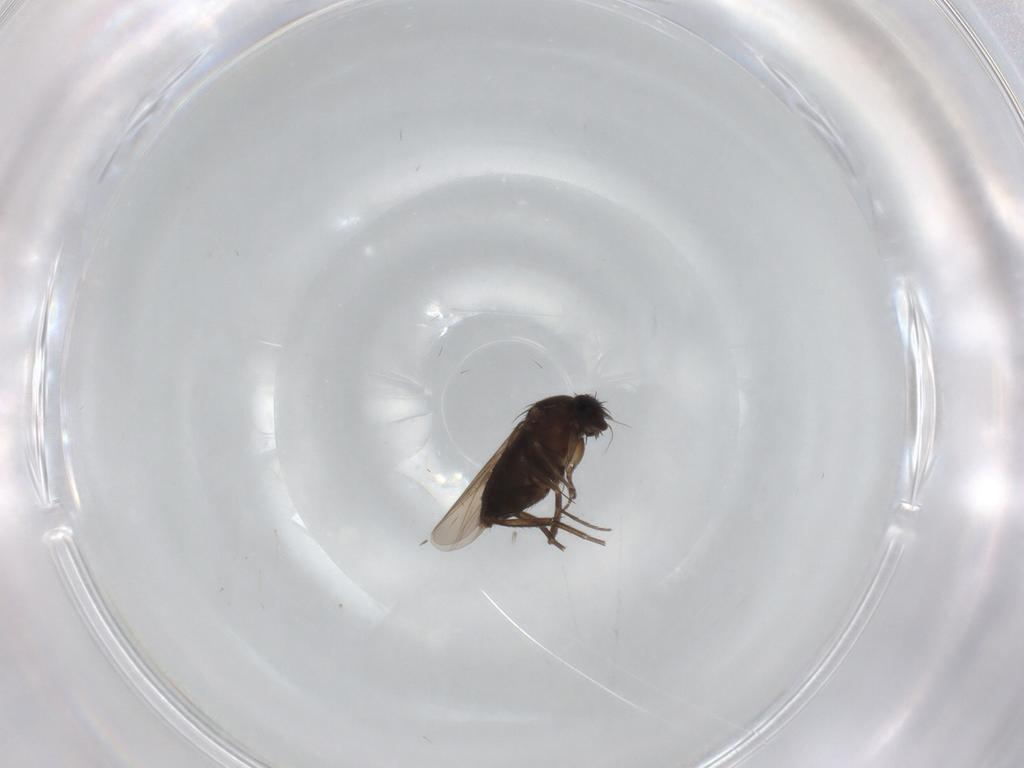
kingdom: Animalia
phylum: Arthropoda
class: Insecta
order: Diptera
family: Phoridae
